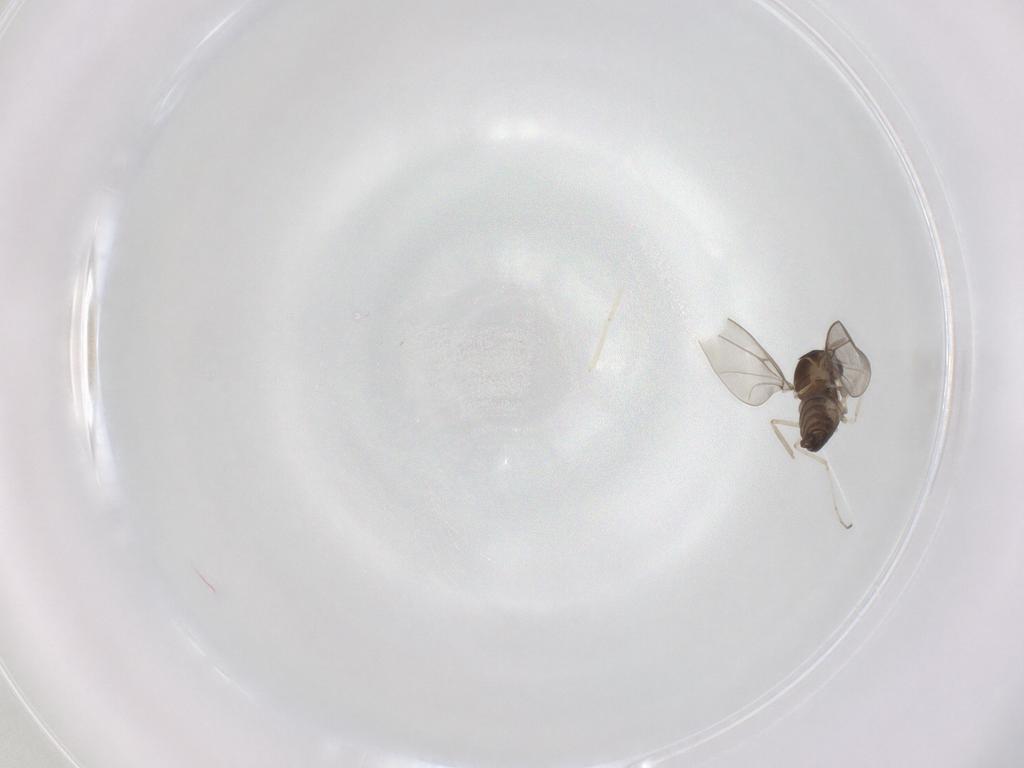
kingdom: Animalia
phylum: Arthropoda
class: Insecta
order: Diptera
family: Cecidomyiidae
